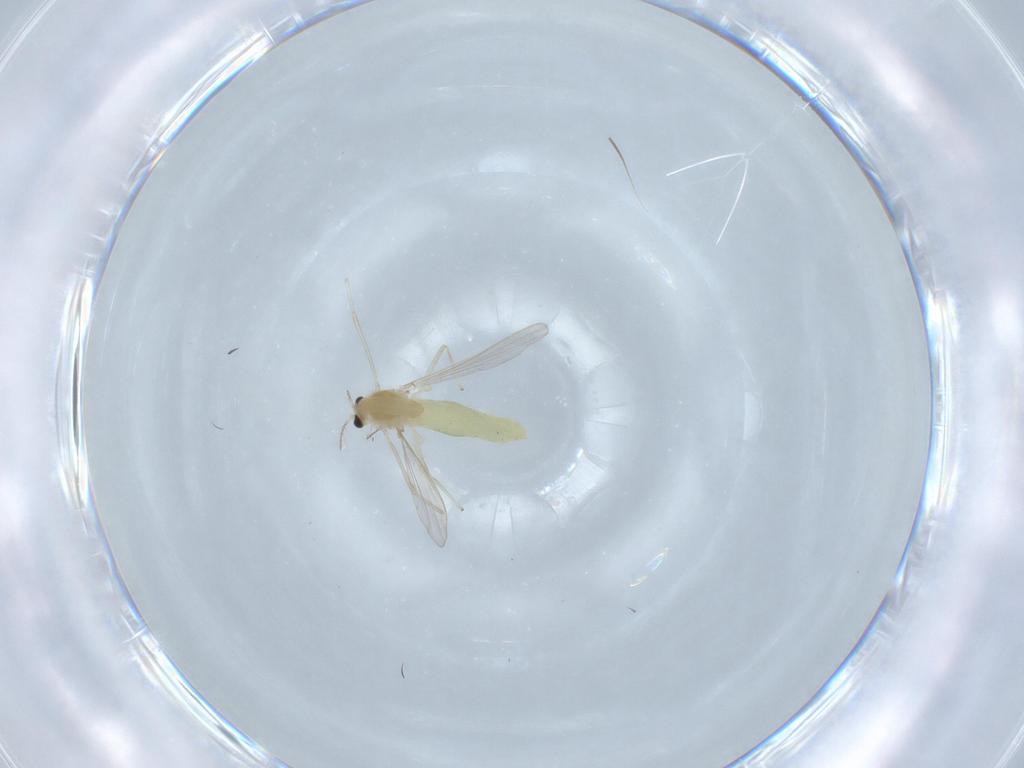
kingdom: Animalia
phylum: Arthropoda
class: Insecta
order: Diptera
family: Chironomidae
